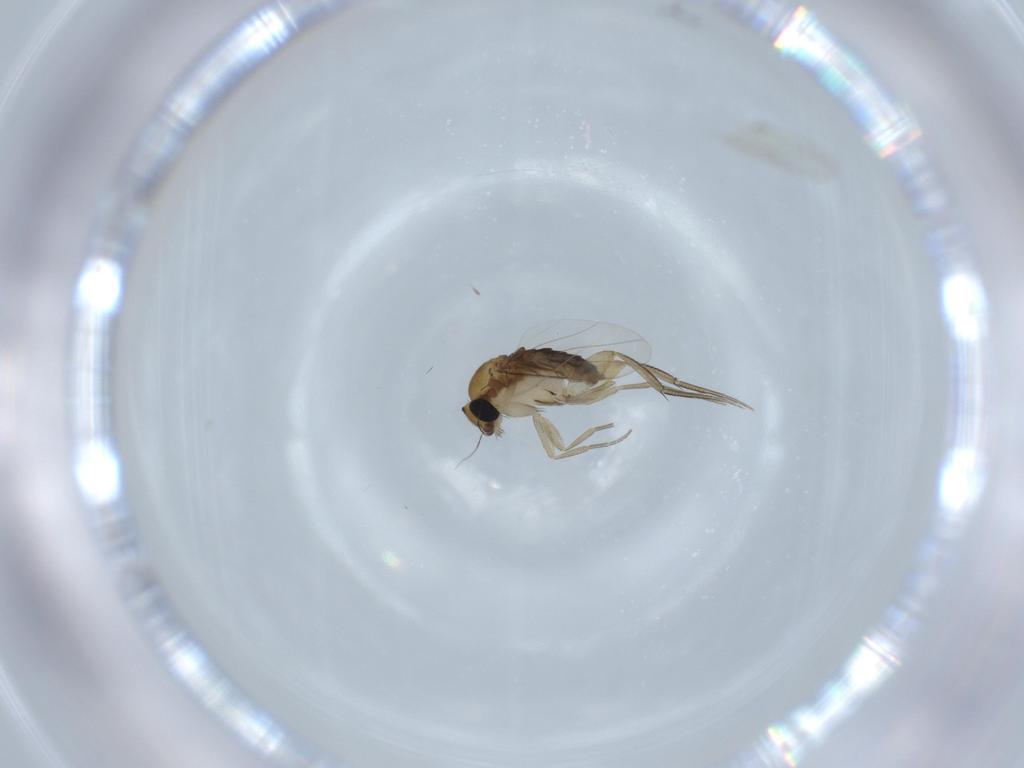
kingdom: Animalia
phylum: Arthropoda
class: Insecta
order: Diptera
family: Phoridae
